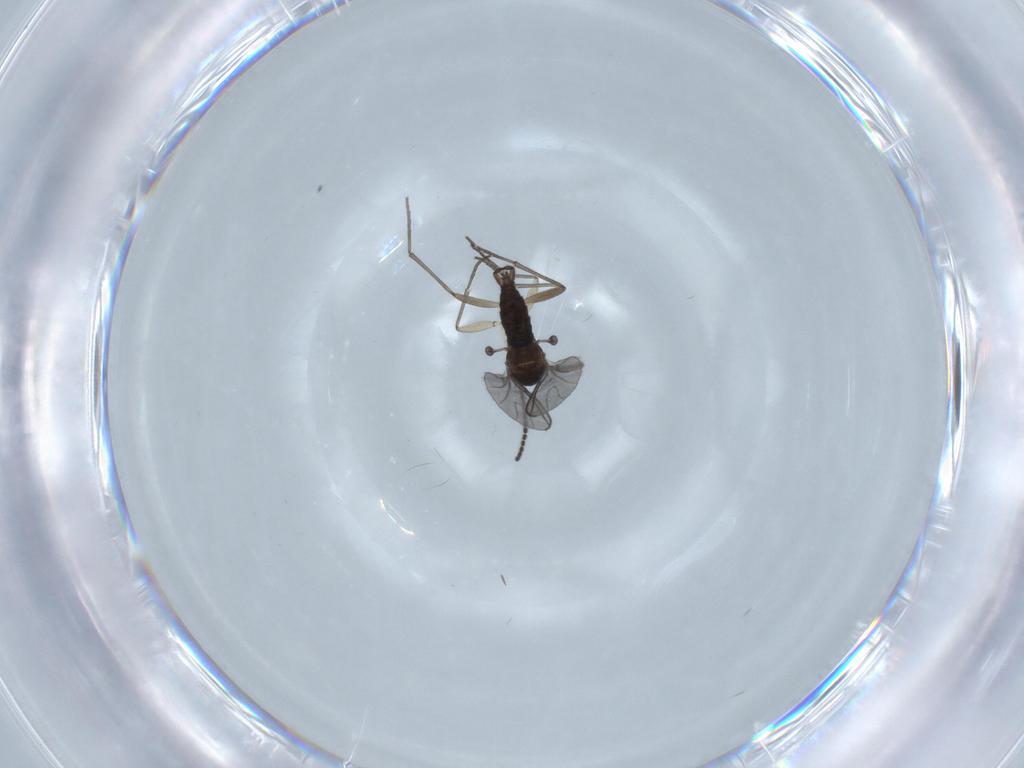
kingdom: Animalia
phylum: Arthropoda
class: Insecta
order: Diptera
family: Sciaridae
